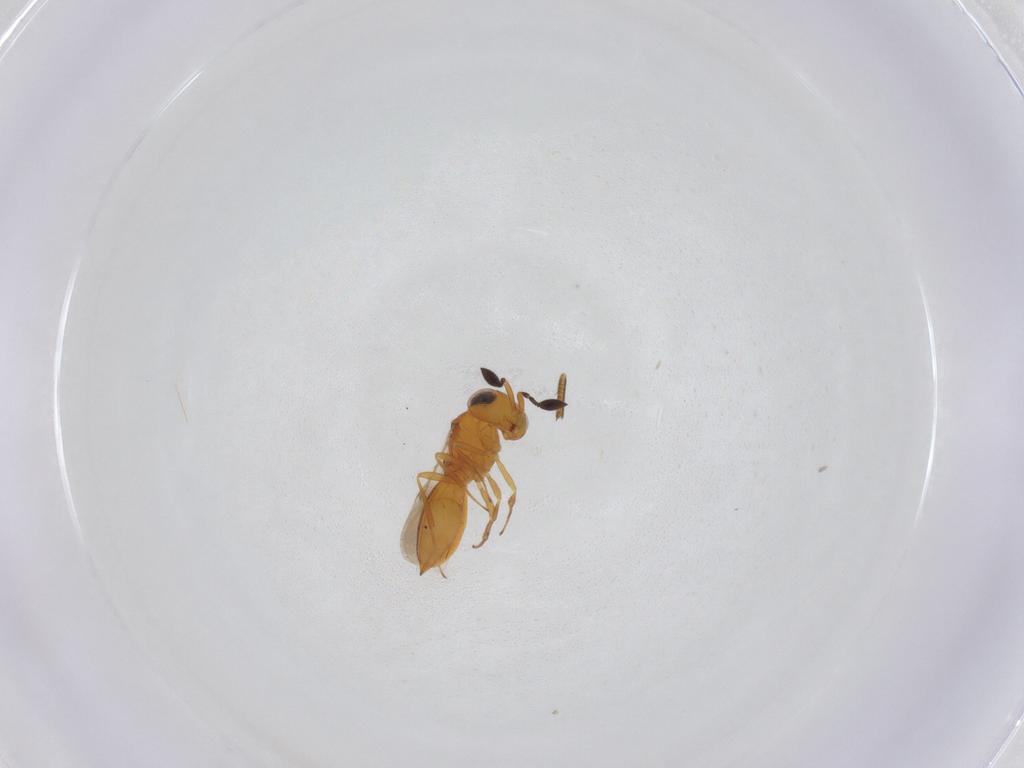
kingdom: Animalia
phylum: Arthropoda
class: Insecta
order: Hymenoptera
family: Scelionidae
